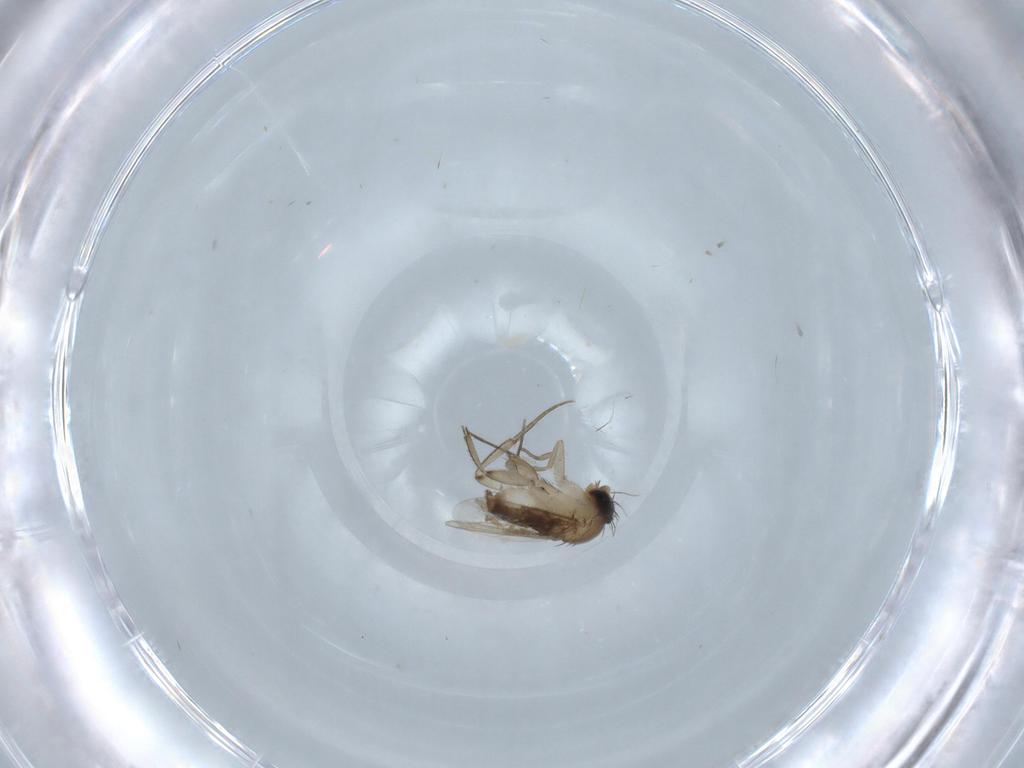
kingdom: Animalia
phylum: Arthropoda
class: Insecta
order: Diptera
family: Phoridae
